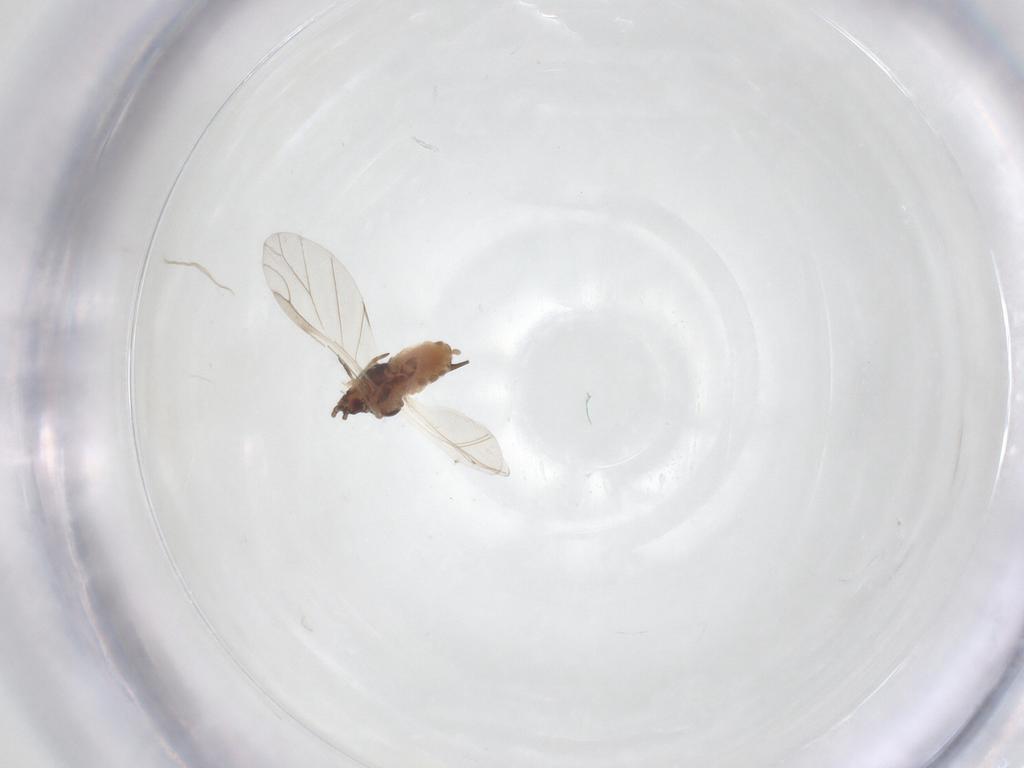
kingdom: Animalia
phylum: Arthropoda
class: Insecta
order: Hemiptera
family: Aphididae
